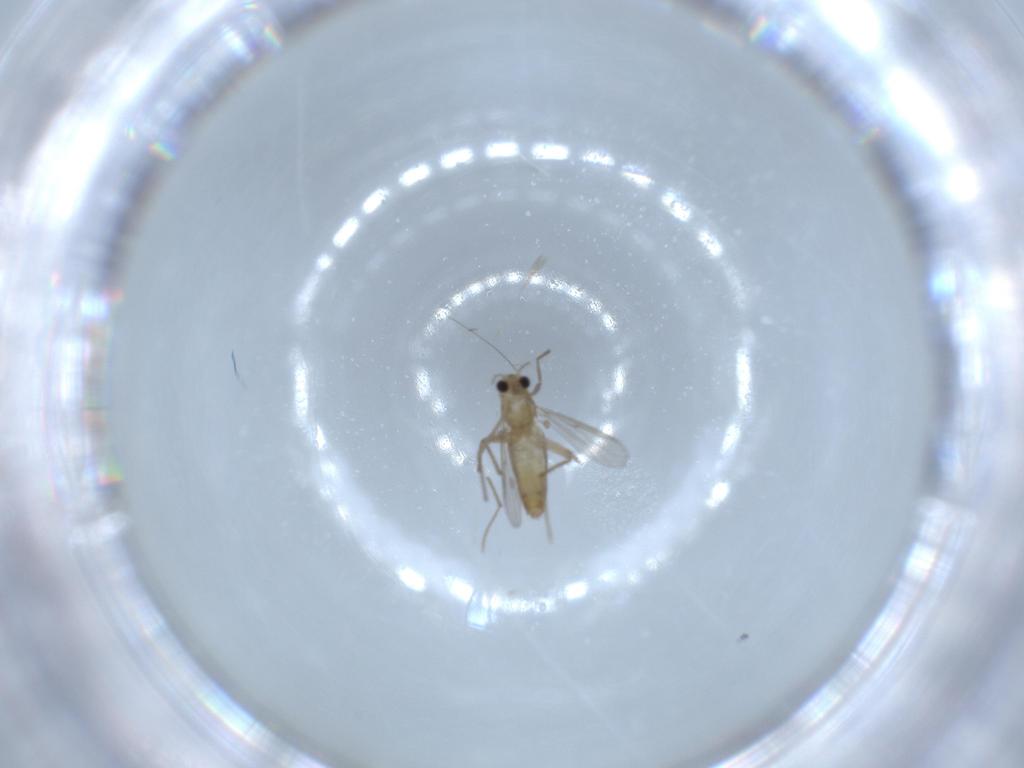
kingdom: Animalia
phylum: Arthropoda
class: Insecta
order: Diptera
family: Chironomidae
